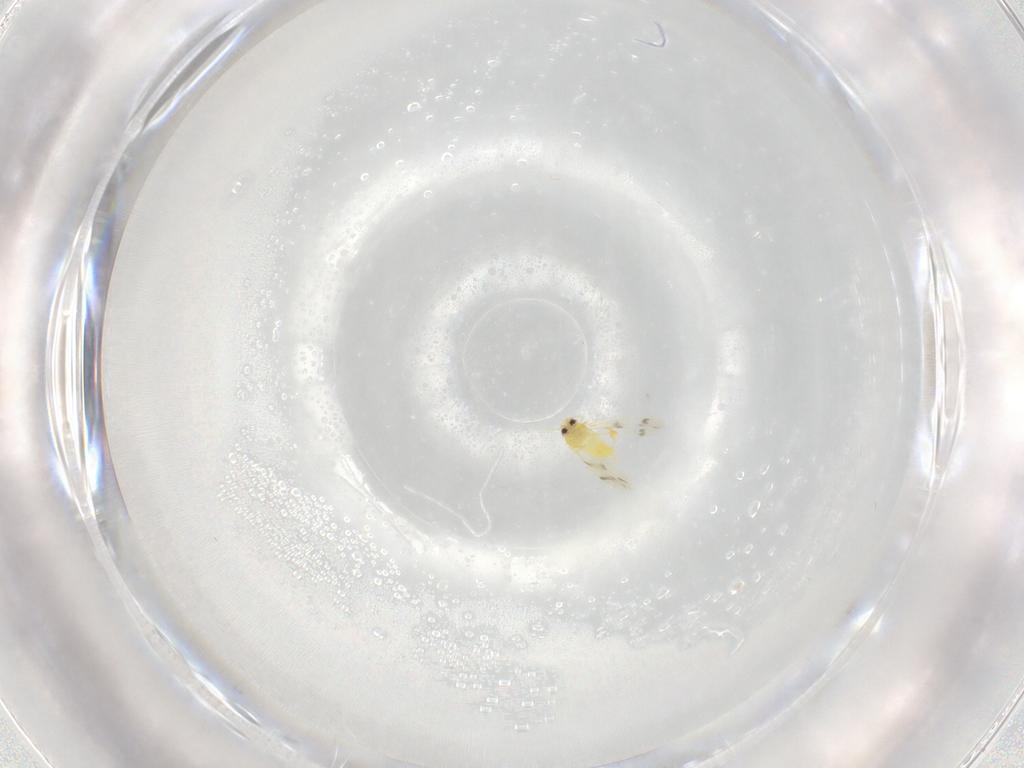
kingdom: Animalia
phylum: Arthropoda
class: Insecta
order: Hemiptera
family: Aleyrodidae
